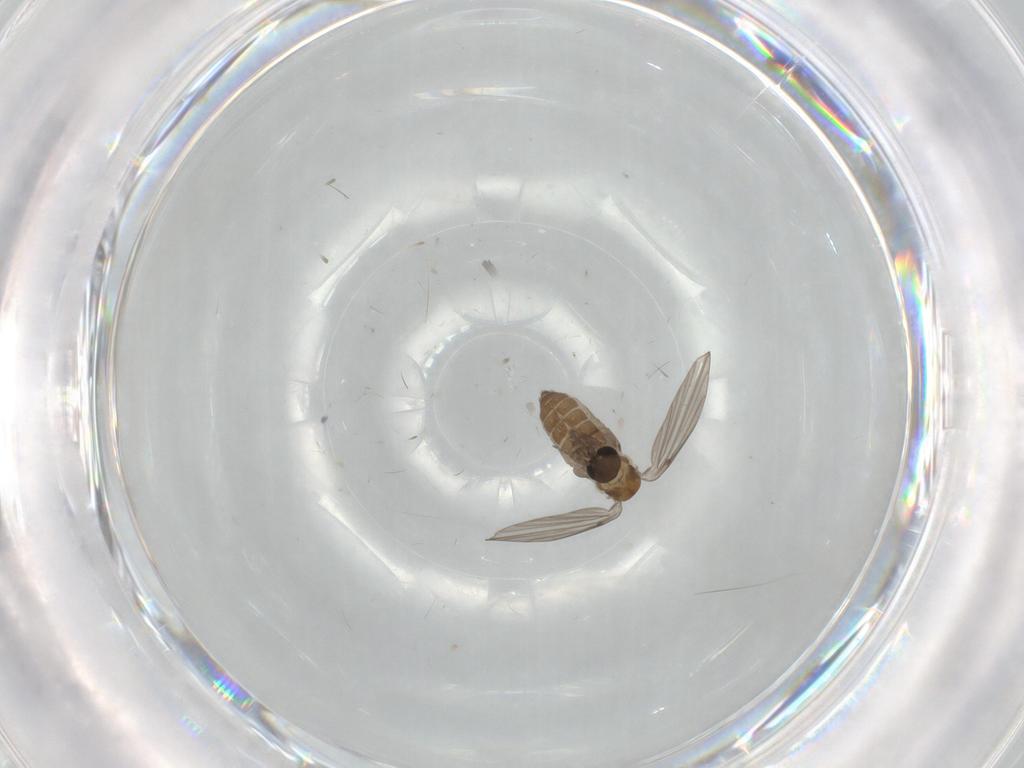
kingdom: Animalia
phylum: Arthropoda
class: Insecta
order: Diptera
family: Psychodidae
